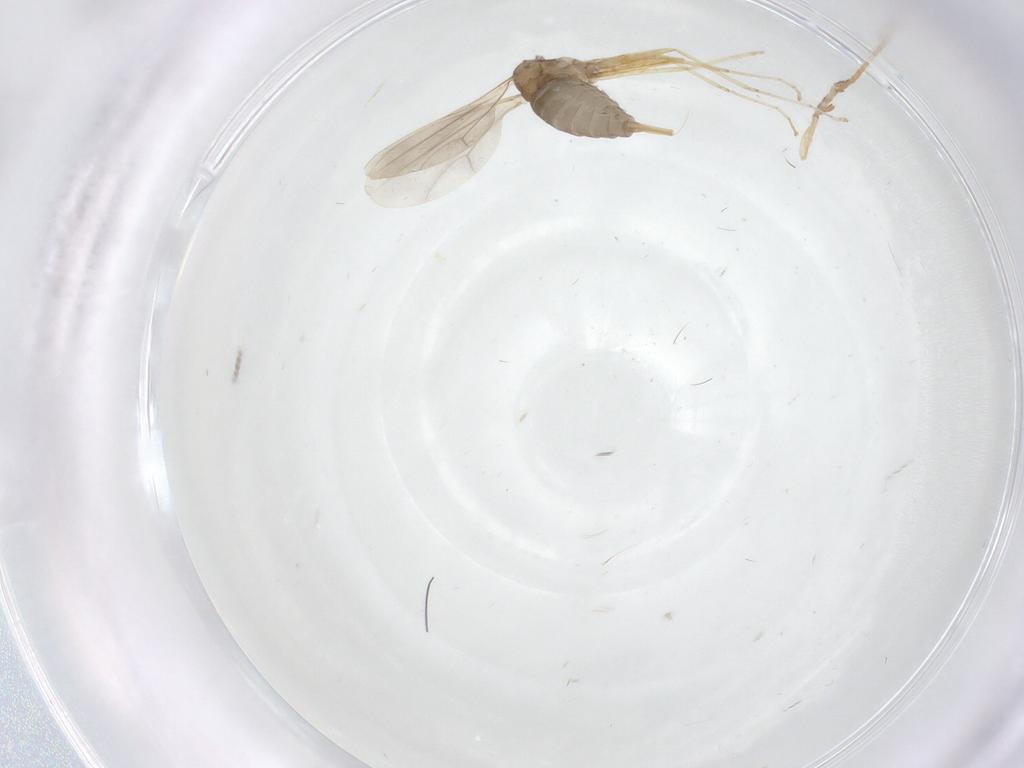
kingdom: Animalia
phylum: Arthropoda
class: Insecta
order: Diptera
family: Cecidomyiidae
